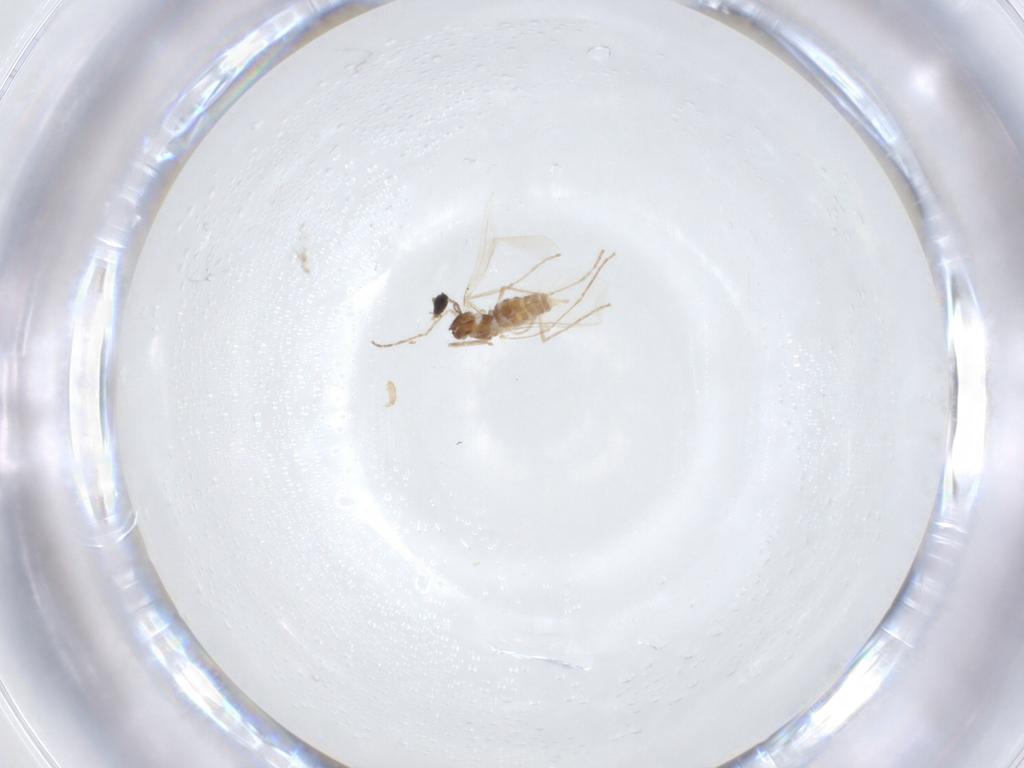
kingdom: Animalia
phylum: Arthropoda
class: Insecta
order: Diptera
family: Cecidomyiidae
